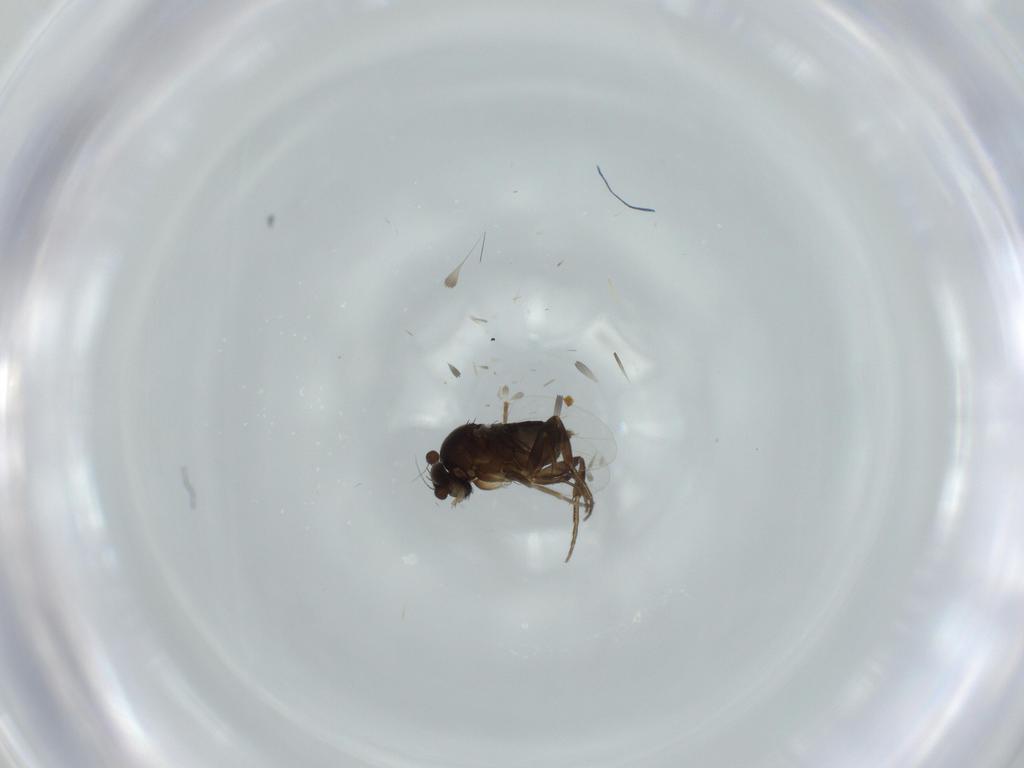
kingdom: Animalia
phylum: Arthropoda
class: Insecta
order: Diptera
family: Phoridae
